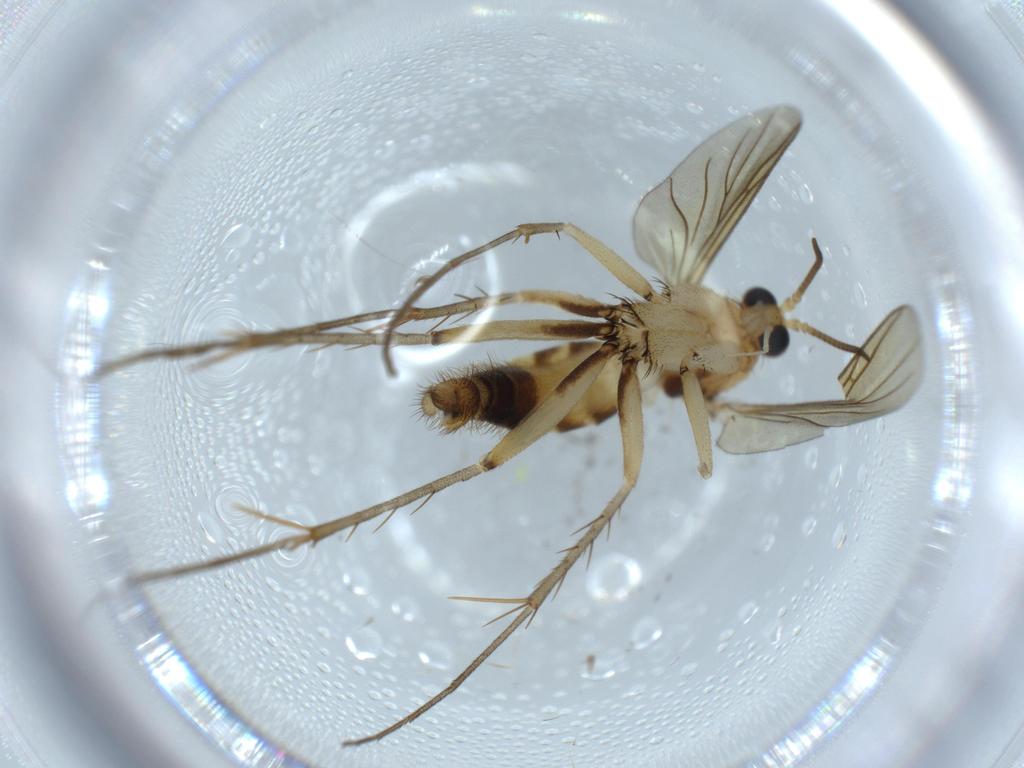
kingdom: Animalia
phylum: Arthropoda
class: Insecta
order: Diptera
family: Mycetophilidae
